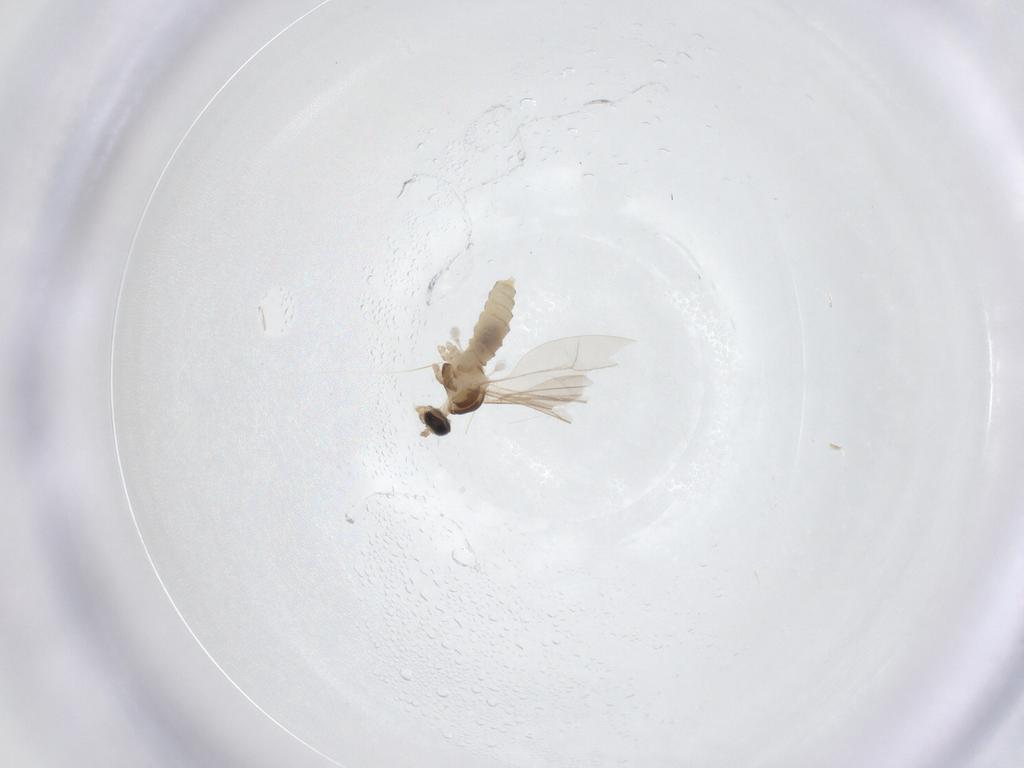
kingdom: Animalia
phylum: Arthropoda
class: Insecta
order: Diptera
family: Cecidomyiidae
